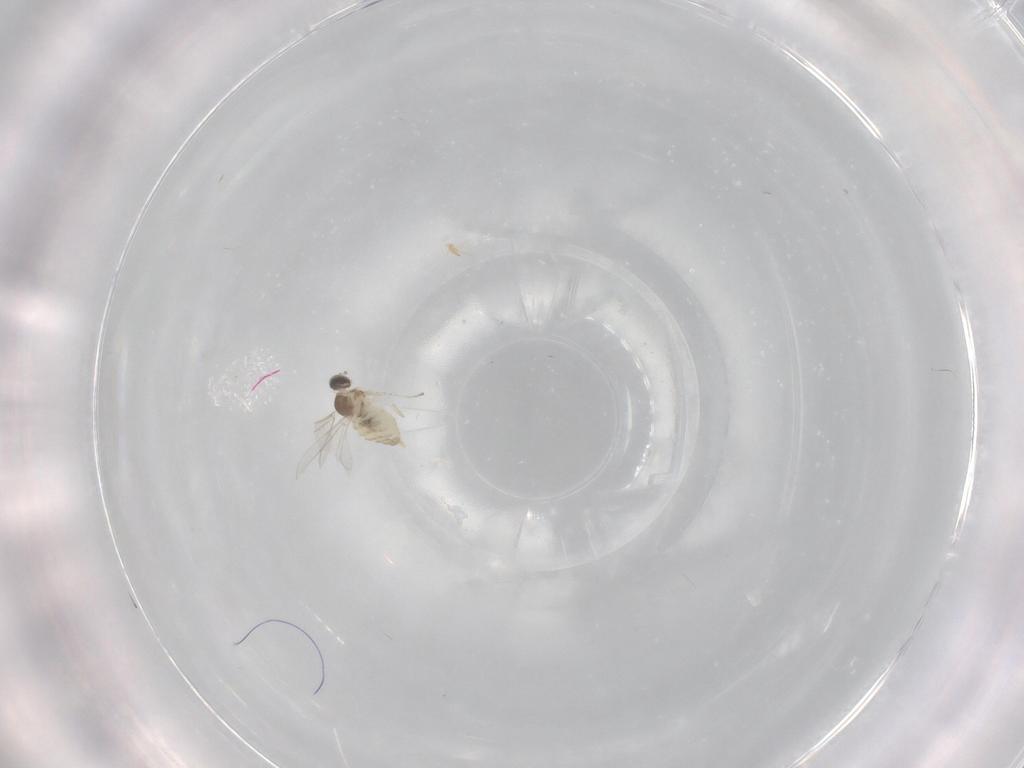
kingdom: Animalia
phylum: Arthropoda
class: Insecta
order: Diptera
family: Cecidomyiidae
